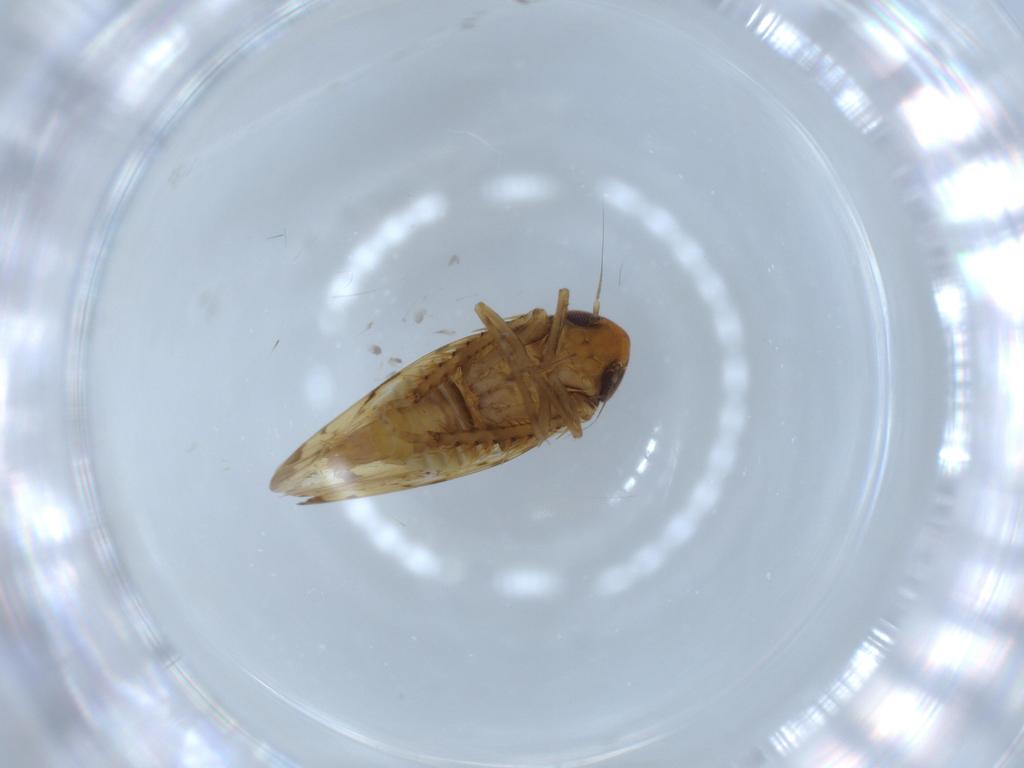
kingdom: Animalia
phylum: Arthropoda
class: Insecta
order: Hemiptera
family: Cicadellidae
